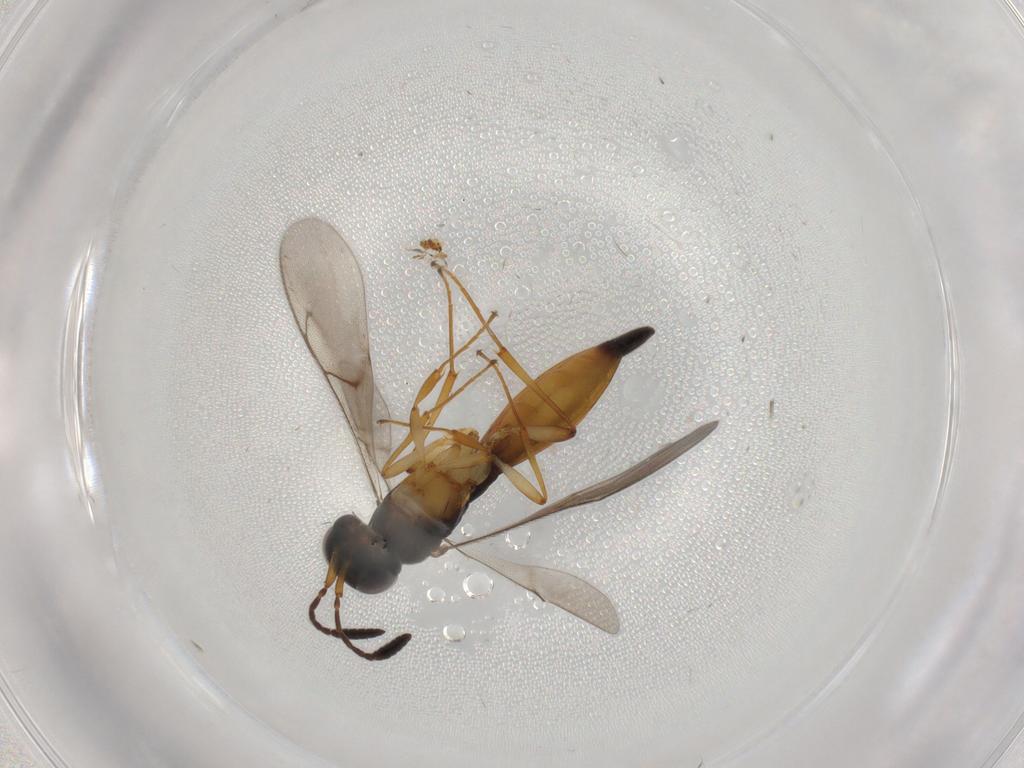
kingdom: Animalia
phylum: Arthropoda
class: Insecta
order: Hymenoptera
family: Scelionidae
